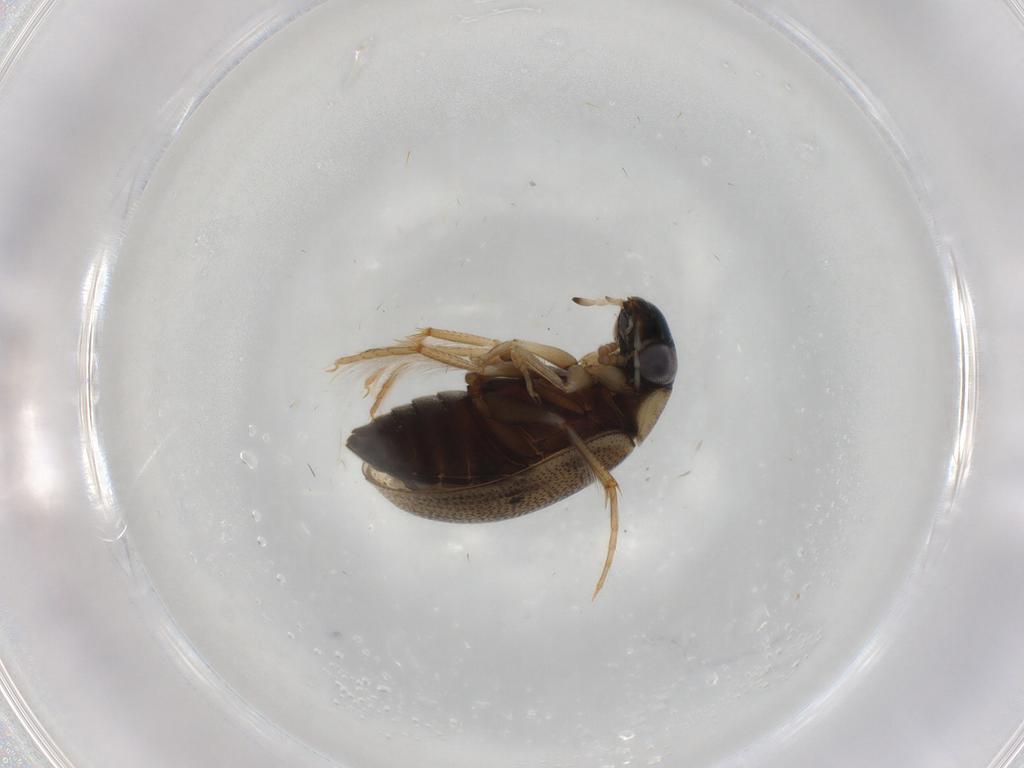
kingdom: Animalia
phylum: Arthropoda
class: Insecta
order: Coleoptera
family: Hydrophilidae
